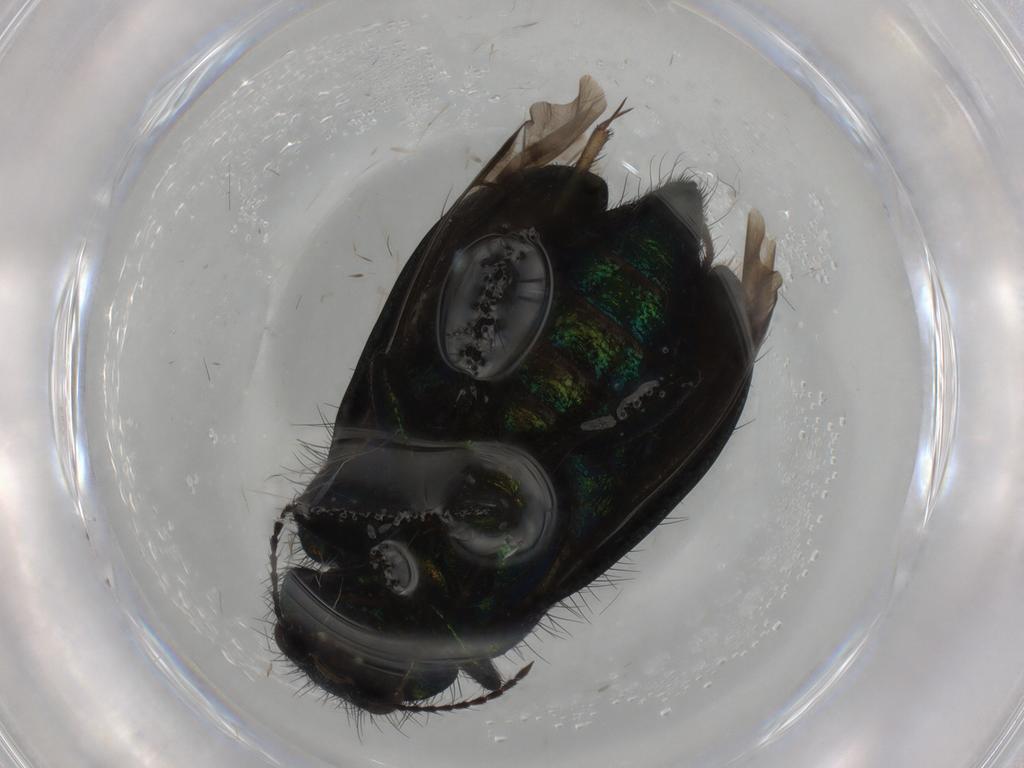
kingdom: Animalia
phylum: Arthropoda
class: Insecta
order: Coleoptera
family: Melyridae
